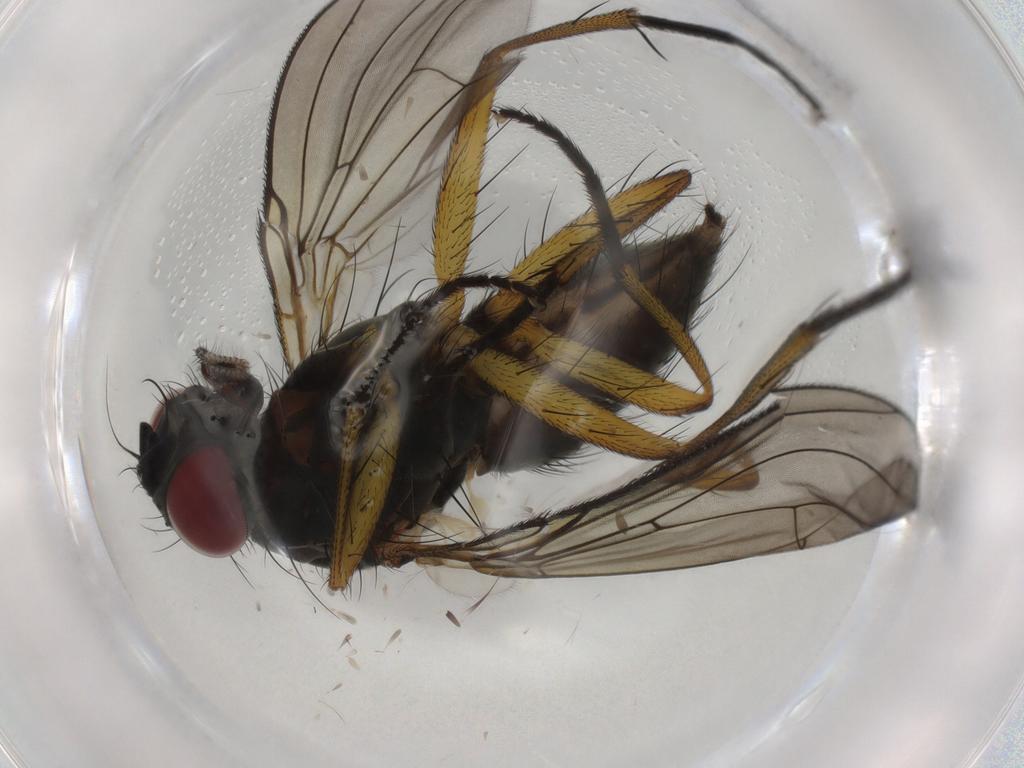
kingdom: Animalia
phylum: Arthropoda
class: Insecta
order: Diptera
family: Muscidae
